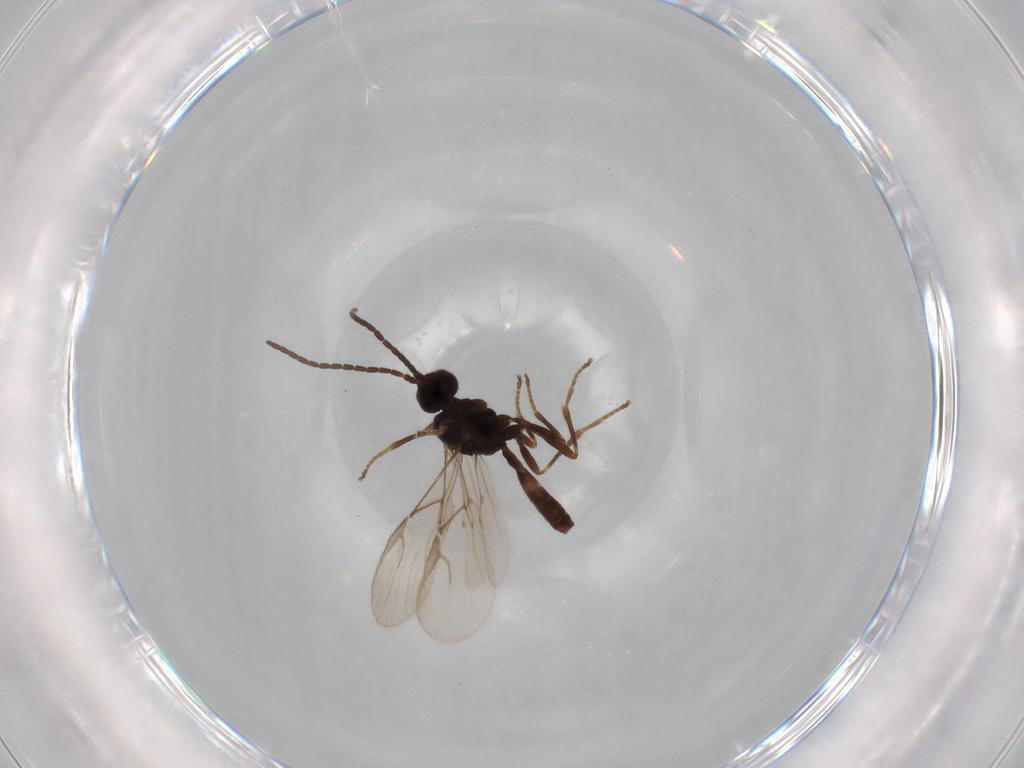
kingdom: Animalia
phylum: Arthropoda
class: Insecta
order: Hymenoptera
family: Braconidae
